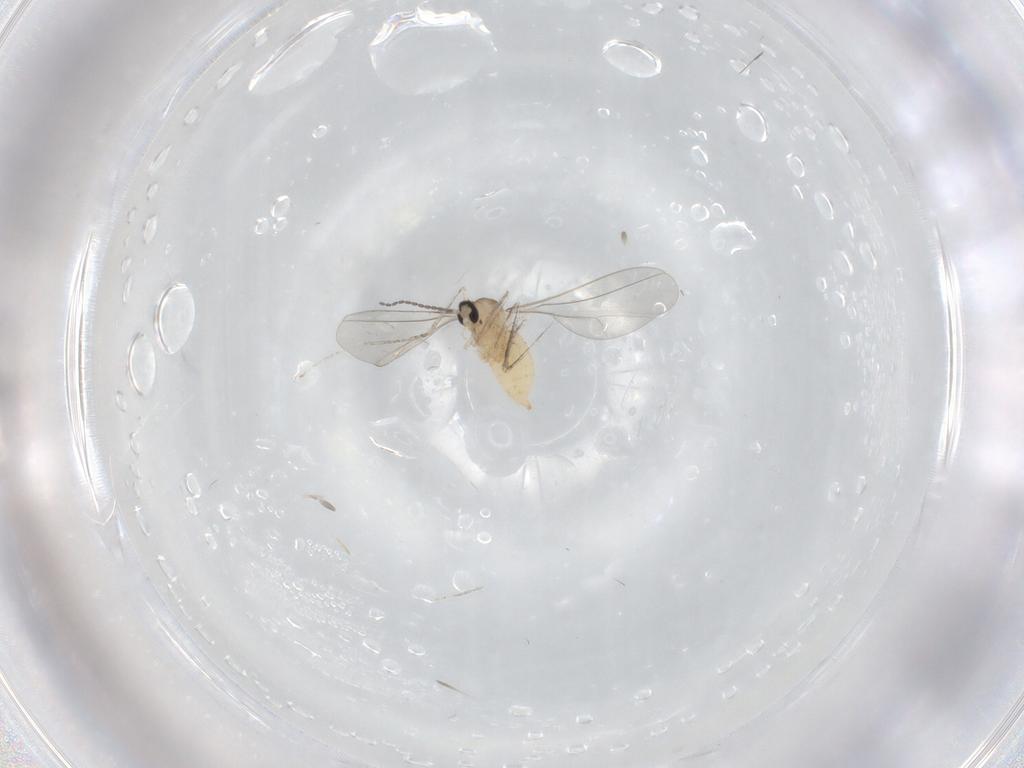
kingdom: Animalia
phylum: Arthropoda
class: Insecta
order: Diptera
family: Cecidomyiidae
